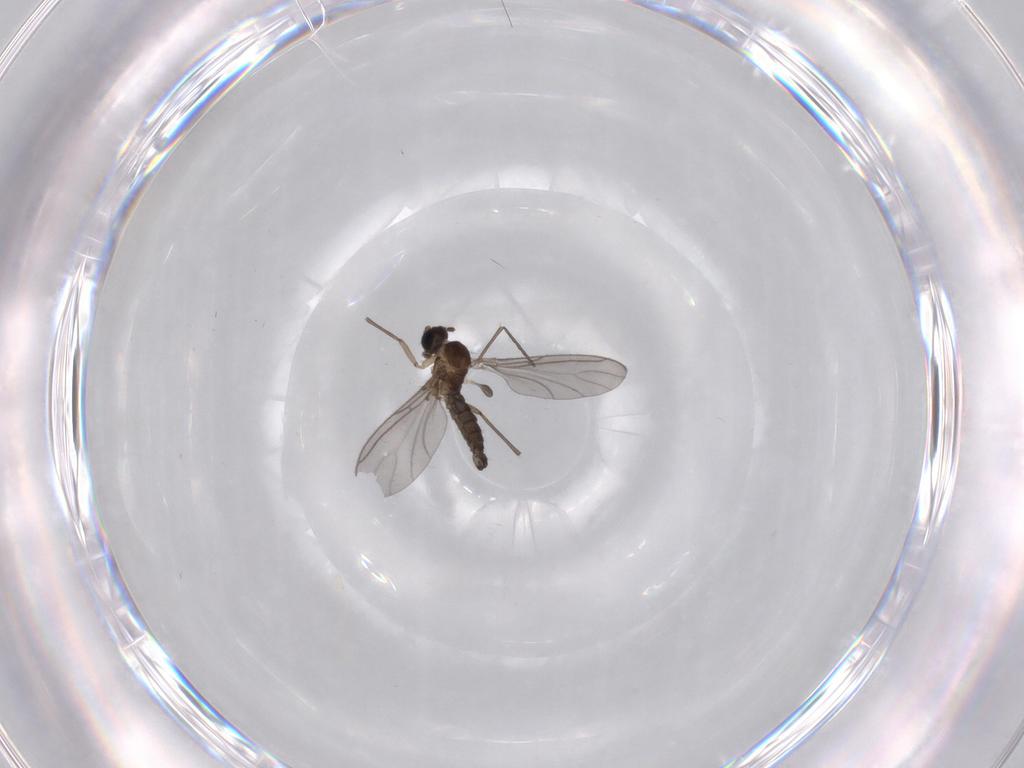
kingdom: Animalia
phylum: Arthropoda
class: Insecta
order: Diptera
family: Sciaridae
